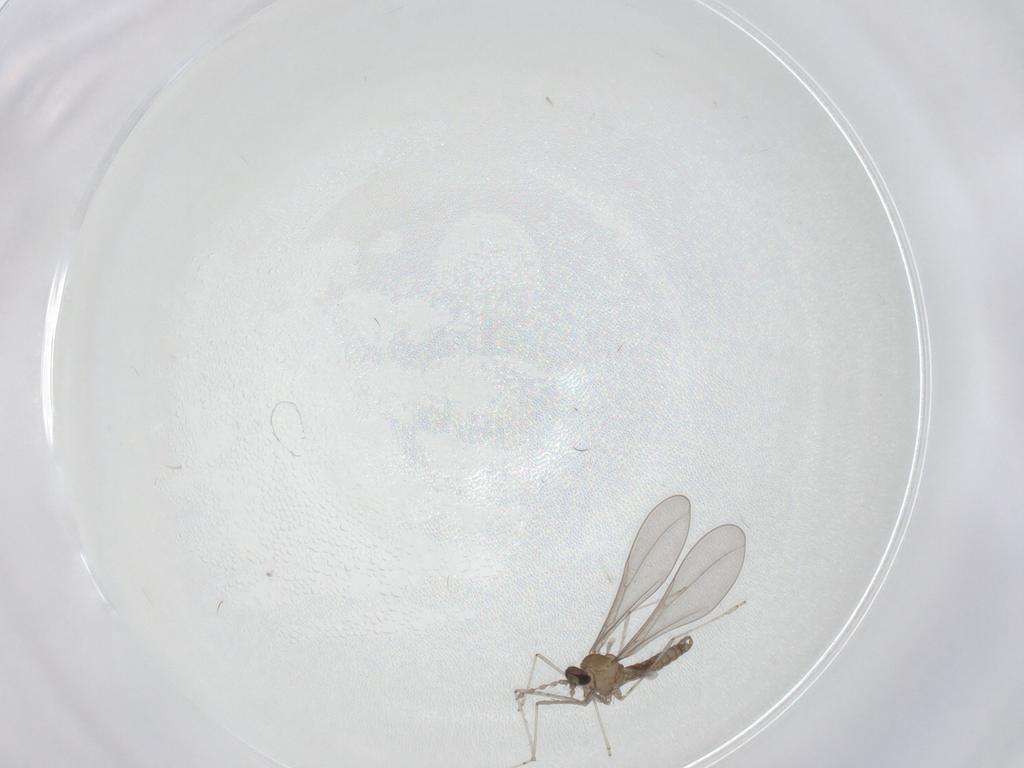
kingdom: Animalia
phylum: Arthropoda
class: Insecta
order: Diptera
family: Cecidomyiidae
